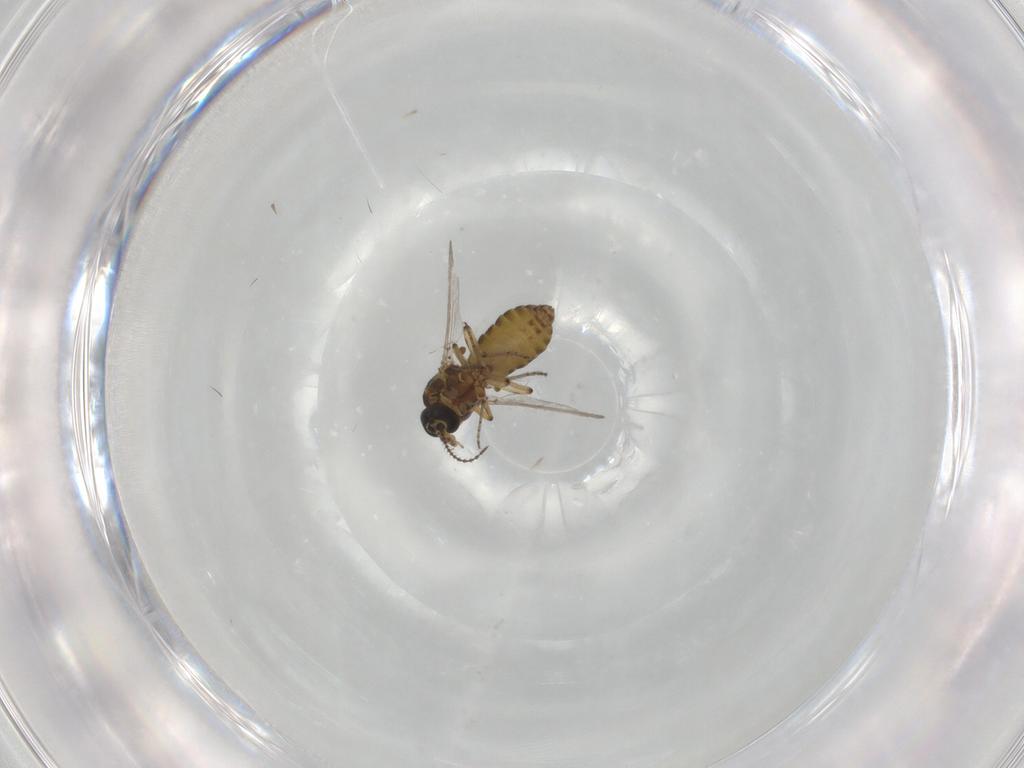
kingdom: Animalia
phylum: Arthropoda
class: Insecta
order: Diptera
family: Ceratopogonidae
